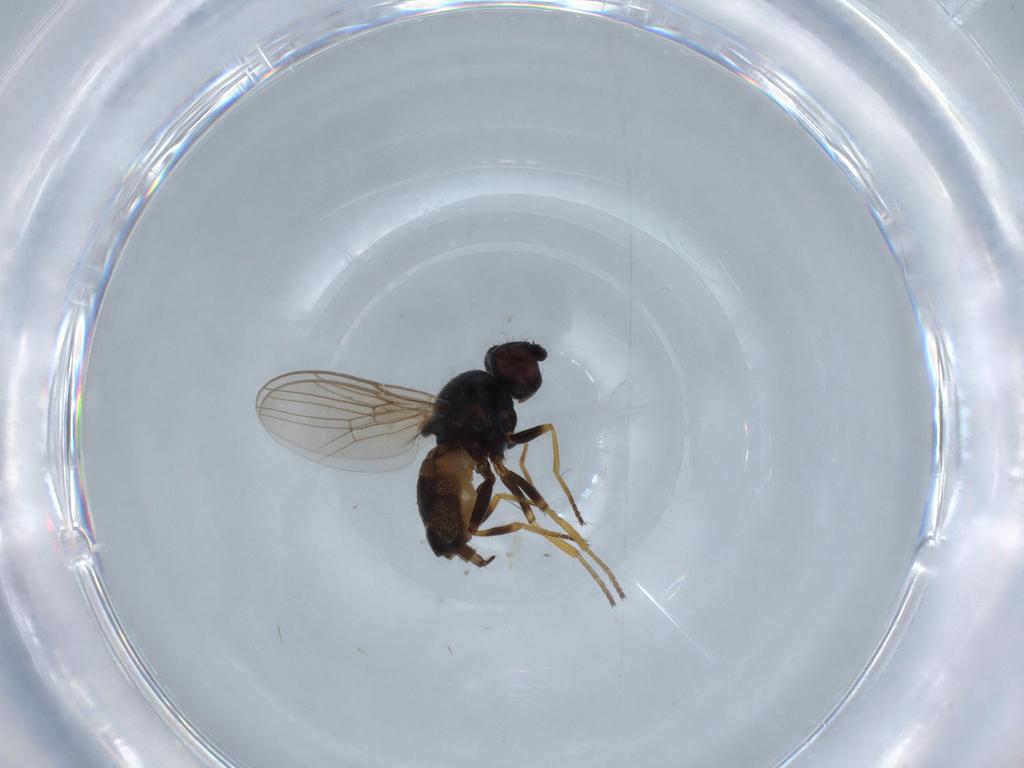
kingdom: Animalia
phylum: Arthropoda
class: Insecta
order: Diptera
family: Chloropidae
